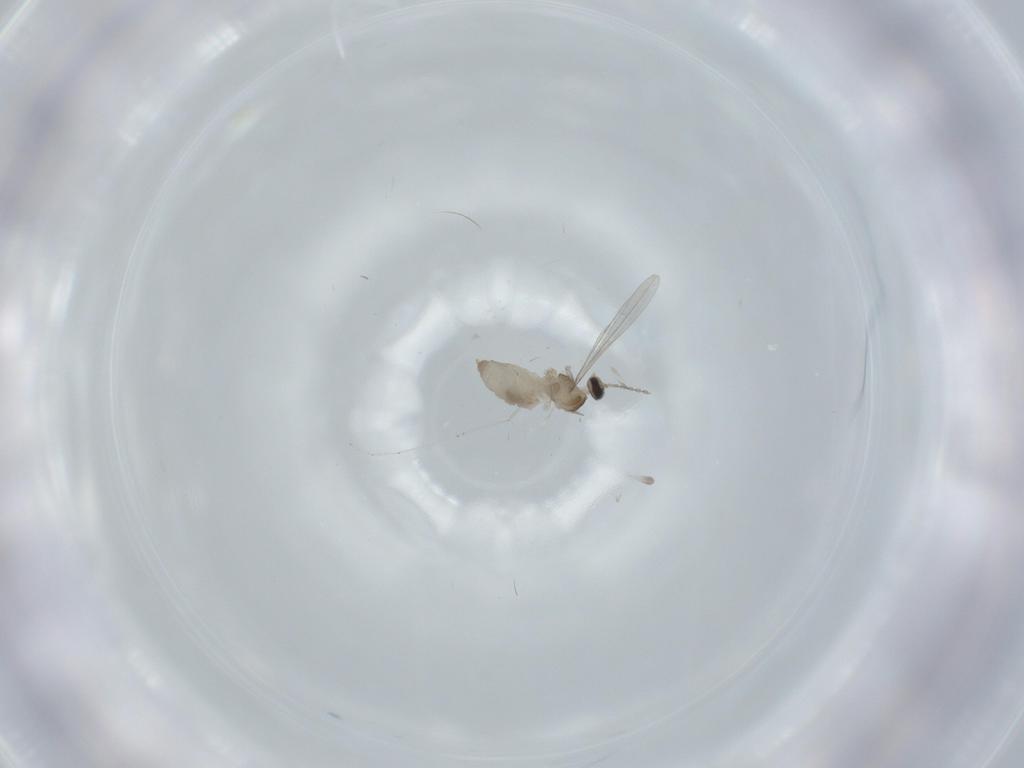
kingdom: Animalia
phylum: Arthropoda
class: Insecta
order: Diptera
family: Cecidomyiidae
